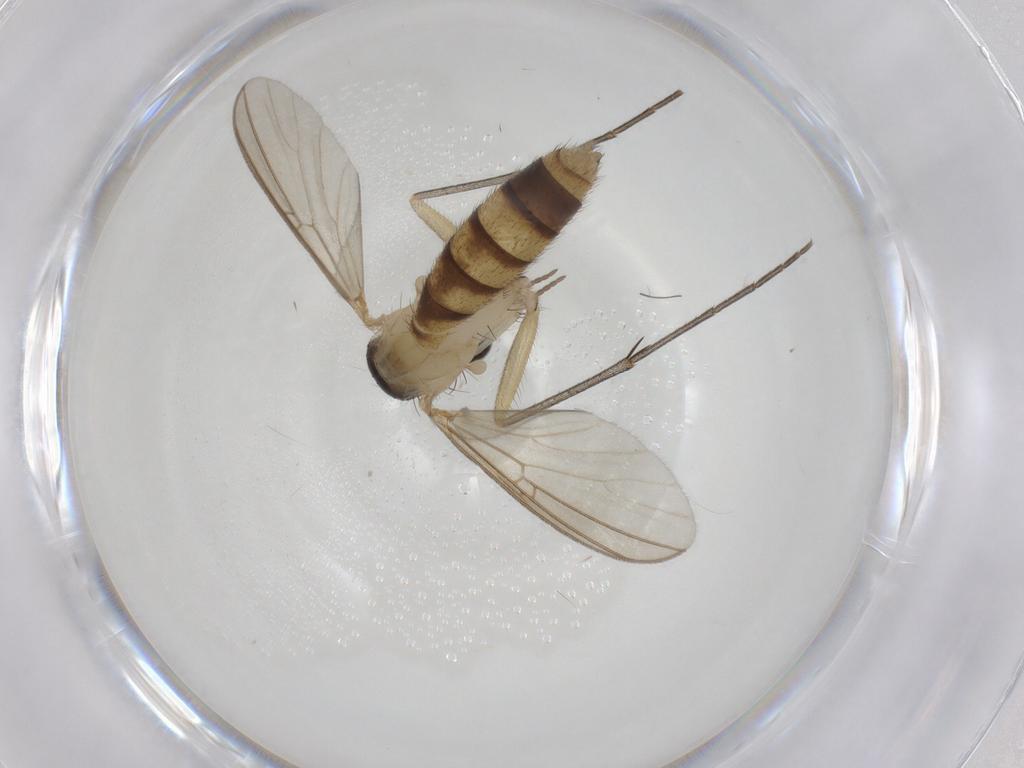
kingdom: Animalia
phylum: Arthropoda
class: Insecta
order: Diptera
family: Mycetophilidae
